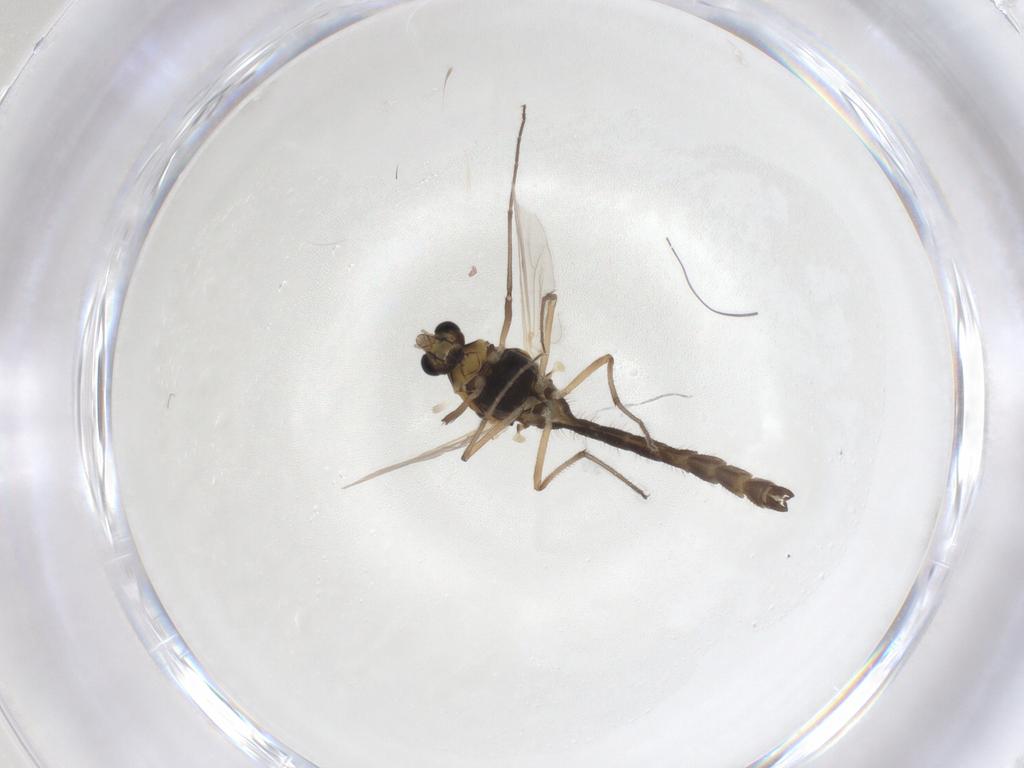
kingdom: Animalia
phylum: Arthropoda
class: Insecta
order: Diptera
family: Chironomidae
